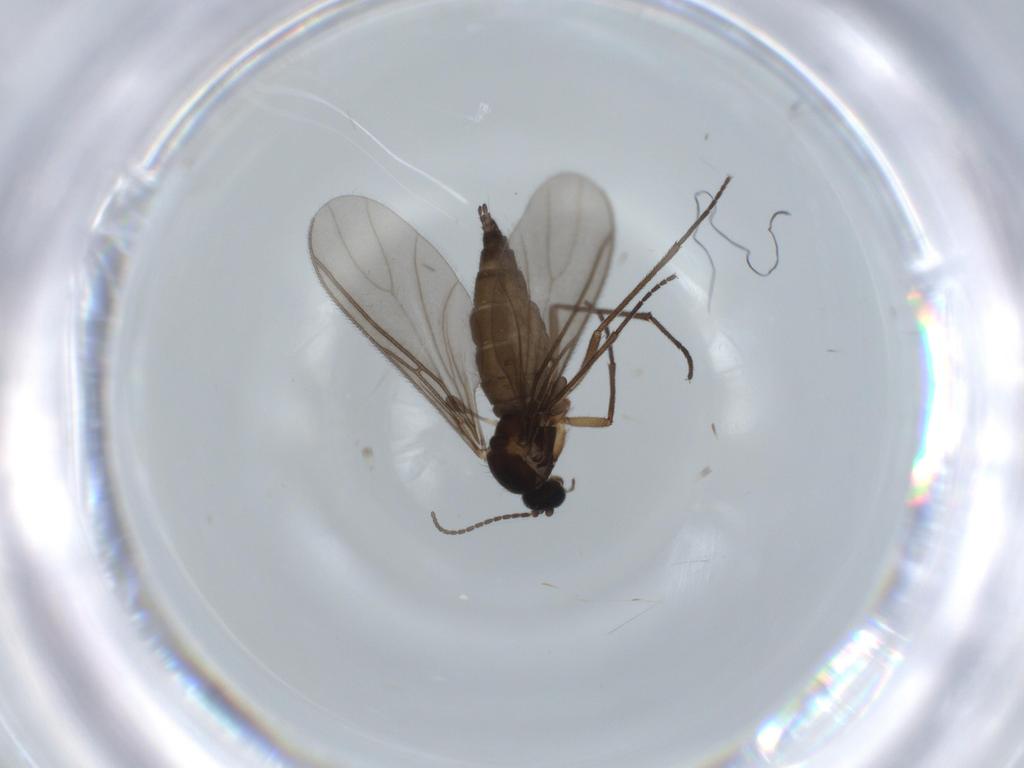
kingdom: Animalia
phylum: Arthropoda
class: Insecta
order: Diptera
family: Sciaridae
